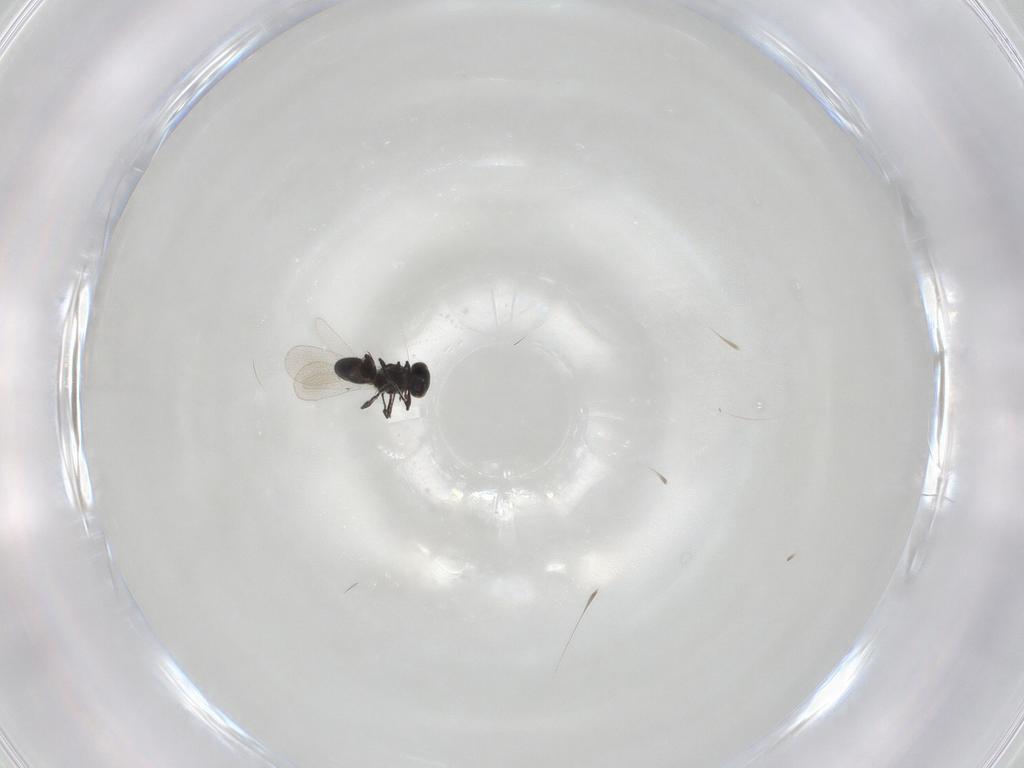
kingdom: Animalia
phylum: Arthropoda
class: Insecta
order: Hymenoptera
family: Platygastridae
